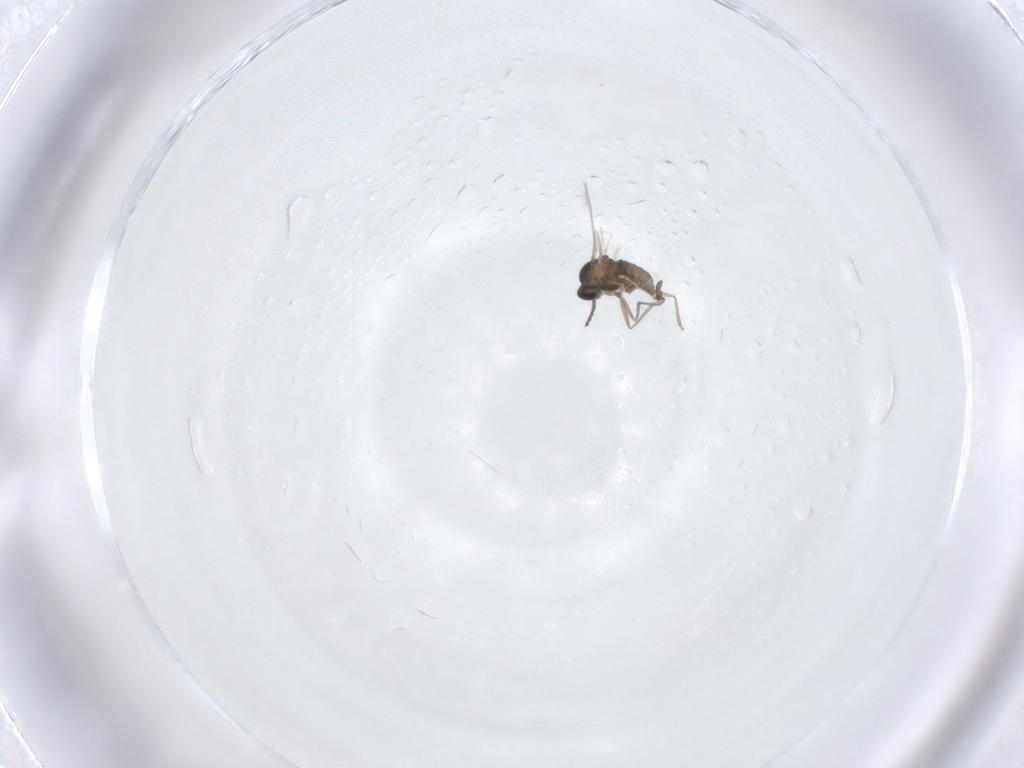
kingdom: Animalia
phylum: Arthropoda
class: Insecta
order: Diptera
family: Cecidomyiidae
